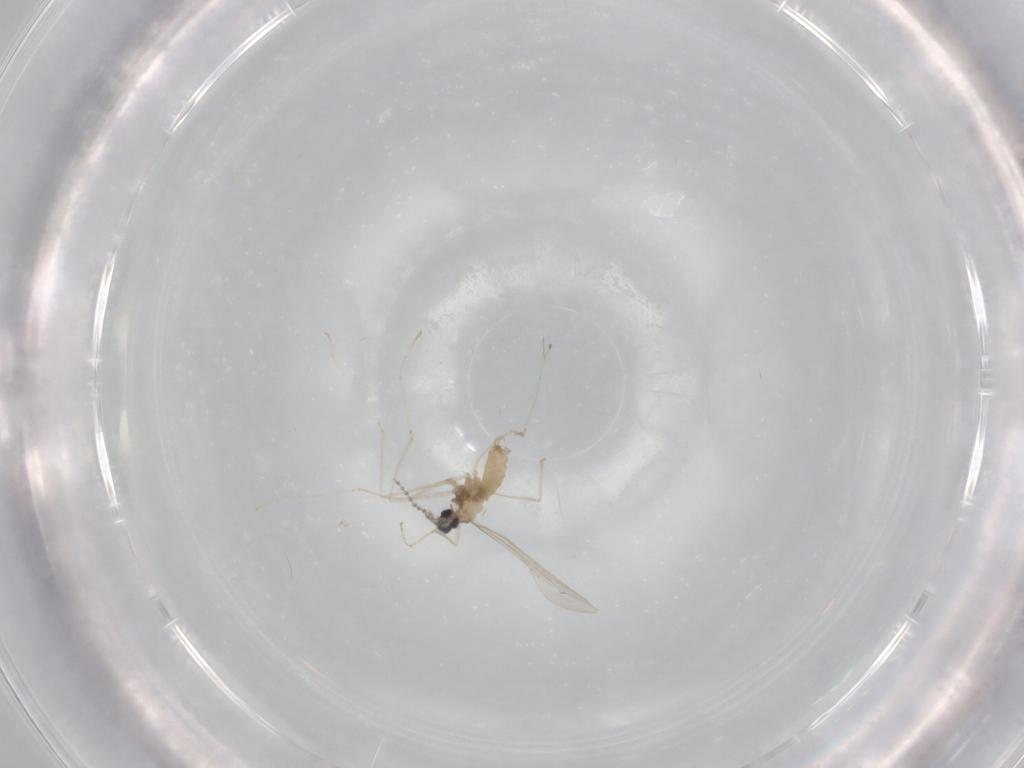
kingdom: Animalia
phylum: Arthropoda
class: Insecta
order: Diptera
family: Cecidomyiidae
